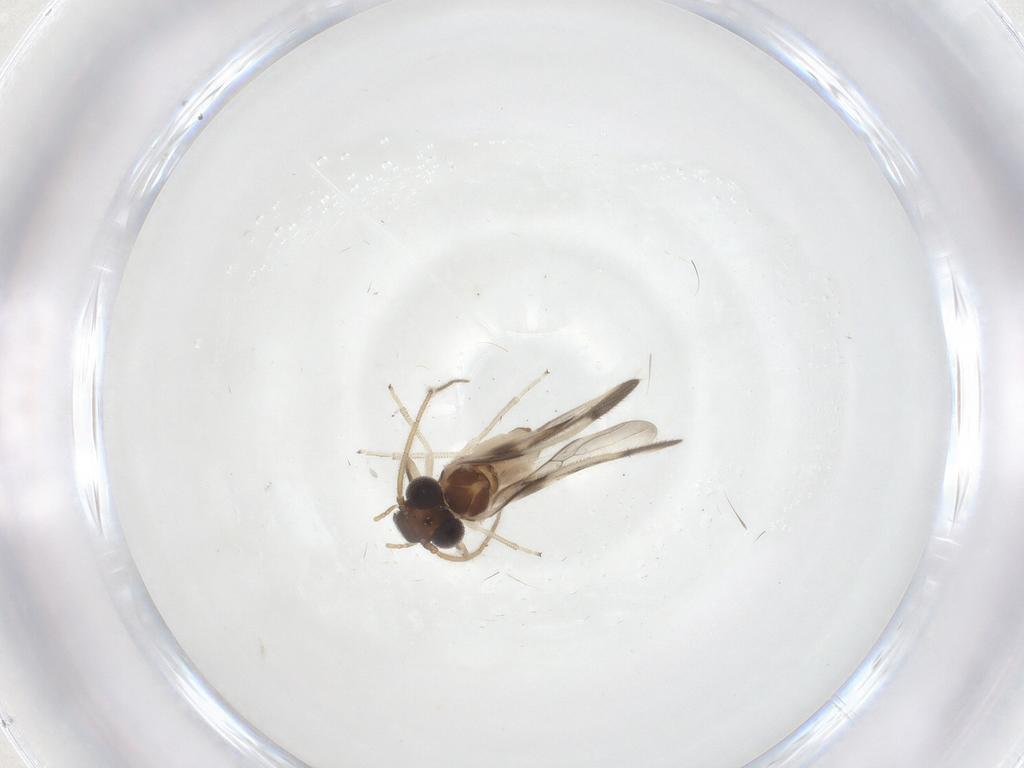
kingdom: Animalia
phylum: Arthropoda
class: Insecta
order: Psocodea
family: Caeciliusidae
